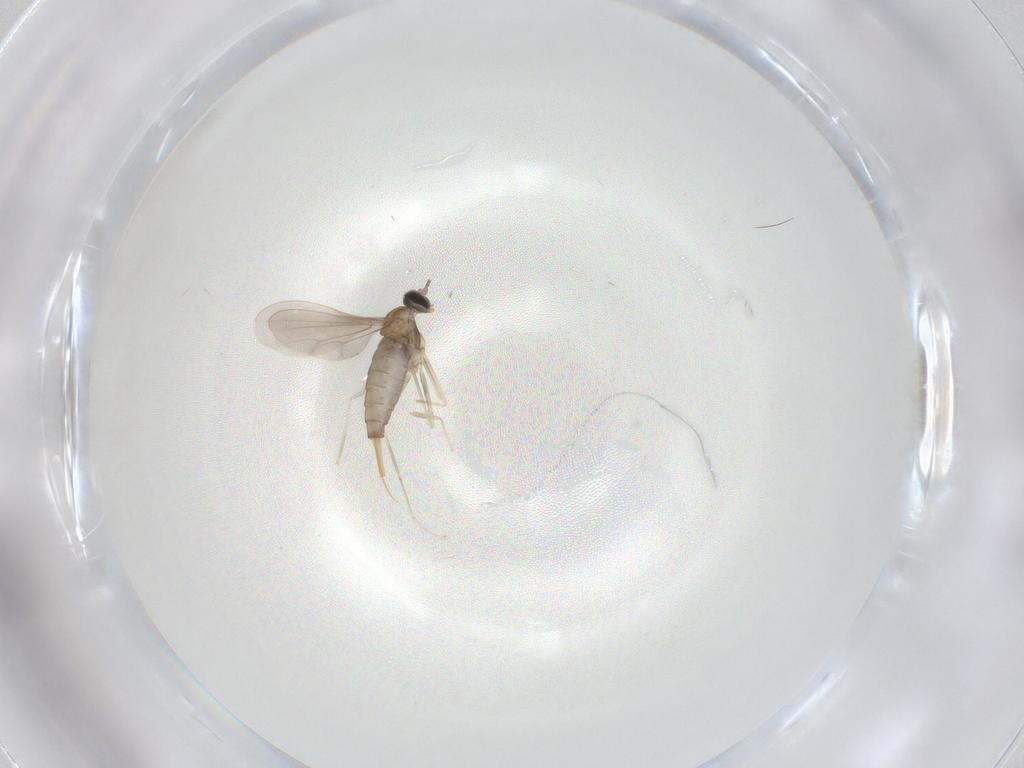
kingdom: Animalia
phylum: Arthropoda
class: Insecta
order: Diptera
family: Cecidomyiidae
